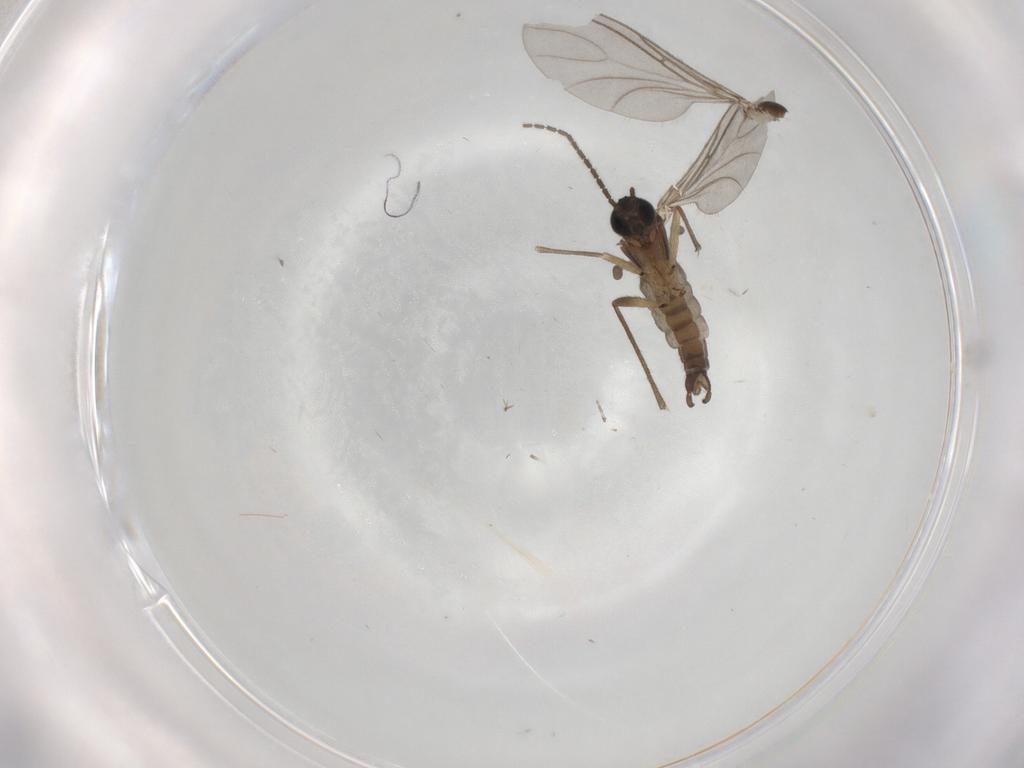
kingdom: Animalia
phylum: Arthropoda
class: Insecta
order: Diptera
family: Sciaridae
